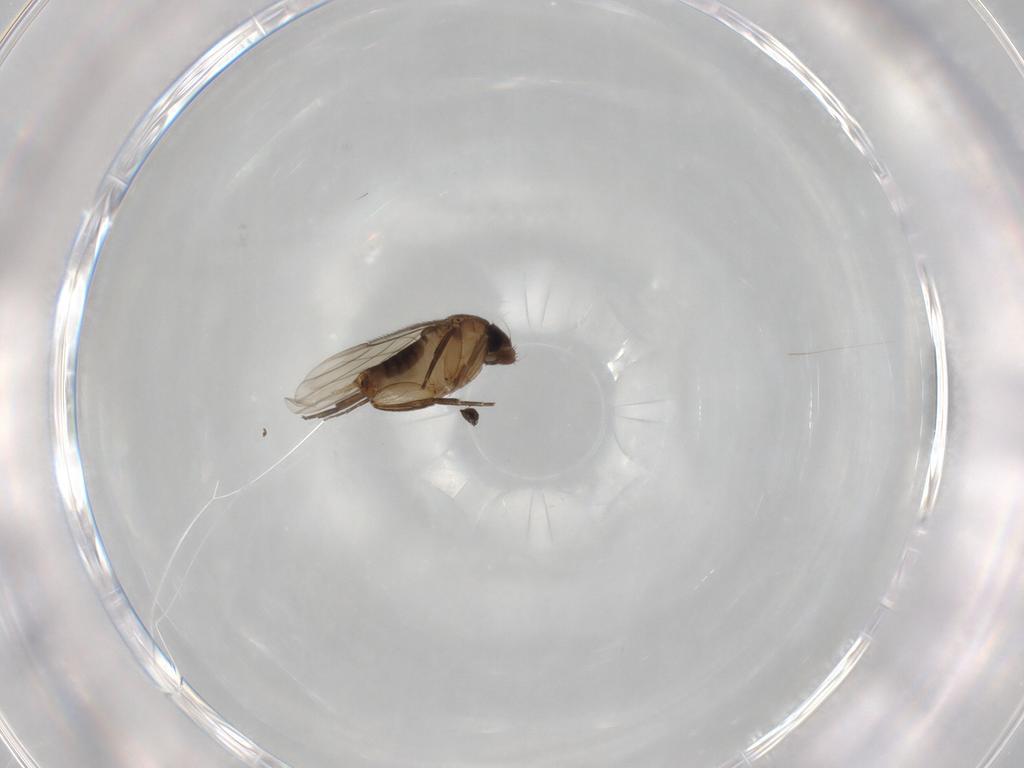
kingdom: Animalia
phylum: Arthropoda
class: Insecta
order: Diptera
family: Phoridae
